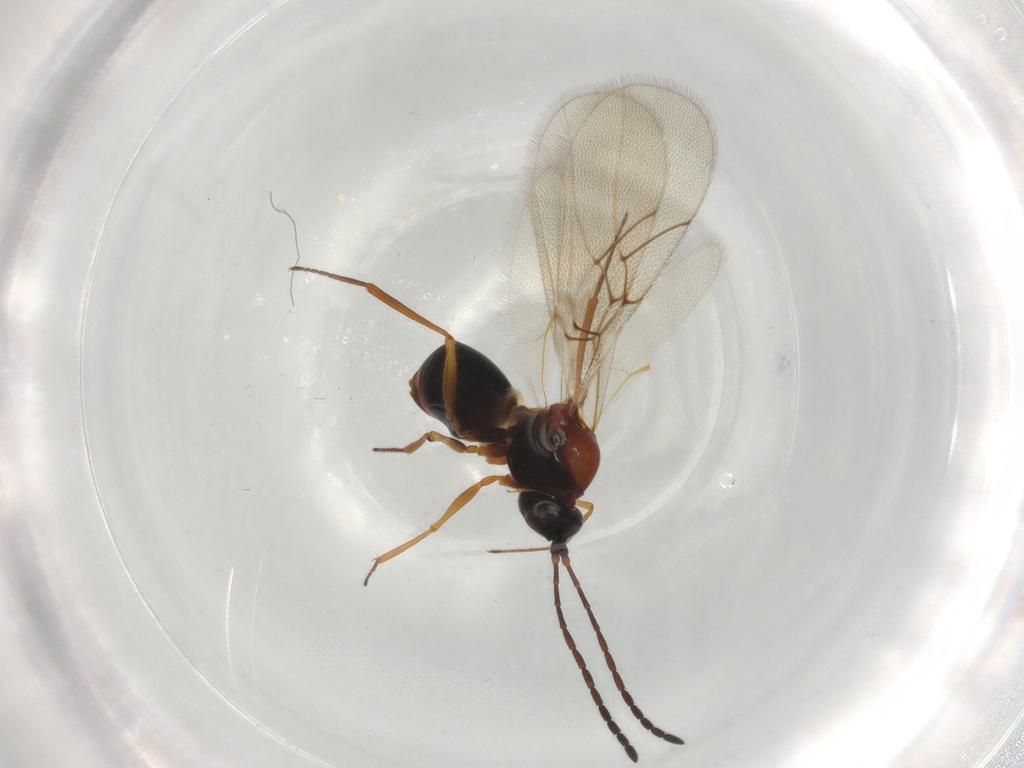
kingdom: Animalia
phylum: Arthropoda
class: Insecta
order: Hymenoptera
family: Figitidae
